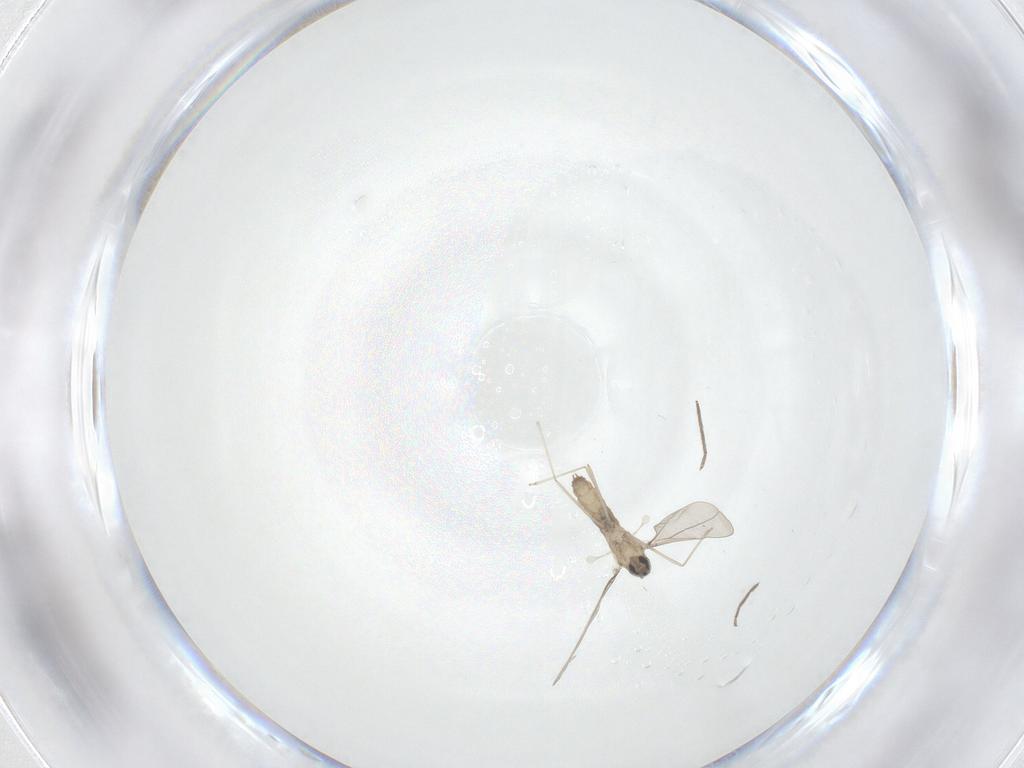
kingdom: Animalia
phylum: Arthropoda
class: Insecta
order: Diptera
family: Cecidomyiidae
